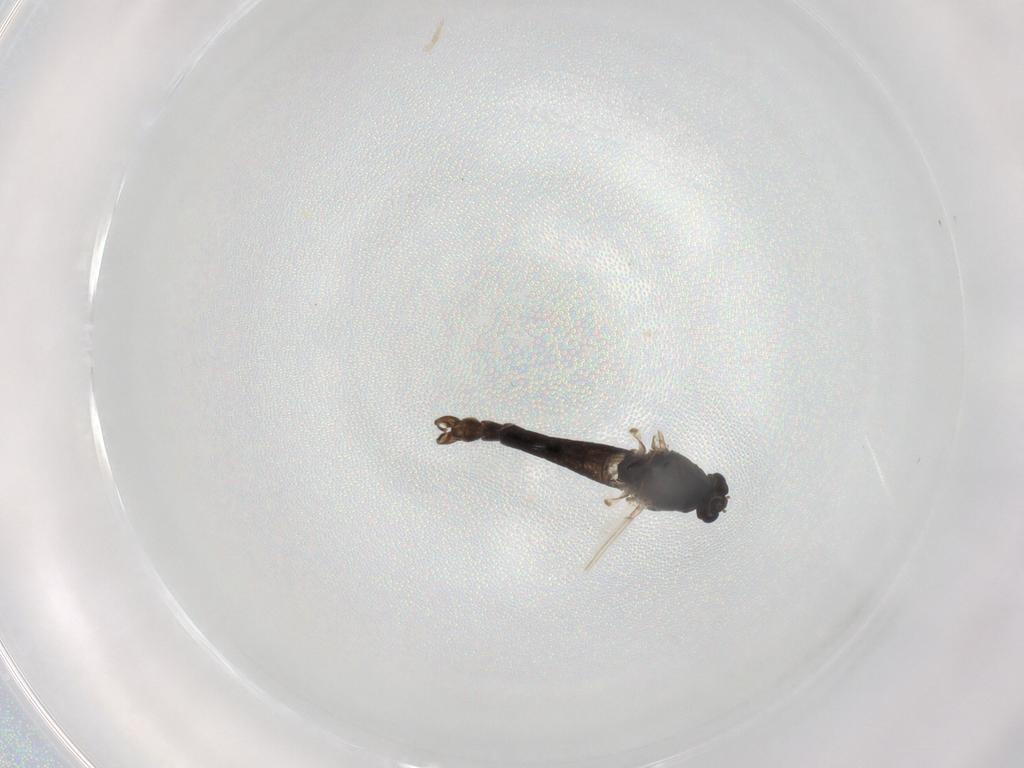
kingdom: Animalia
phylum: Arthropoda
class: Insecta
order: Diptera
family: Chironomidae
